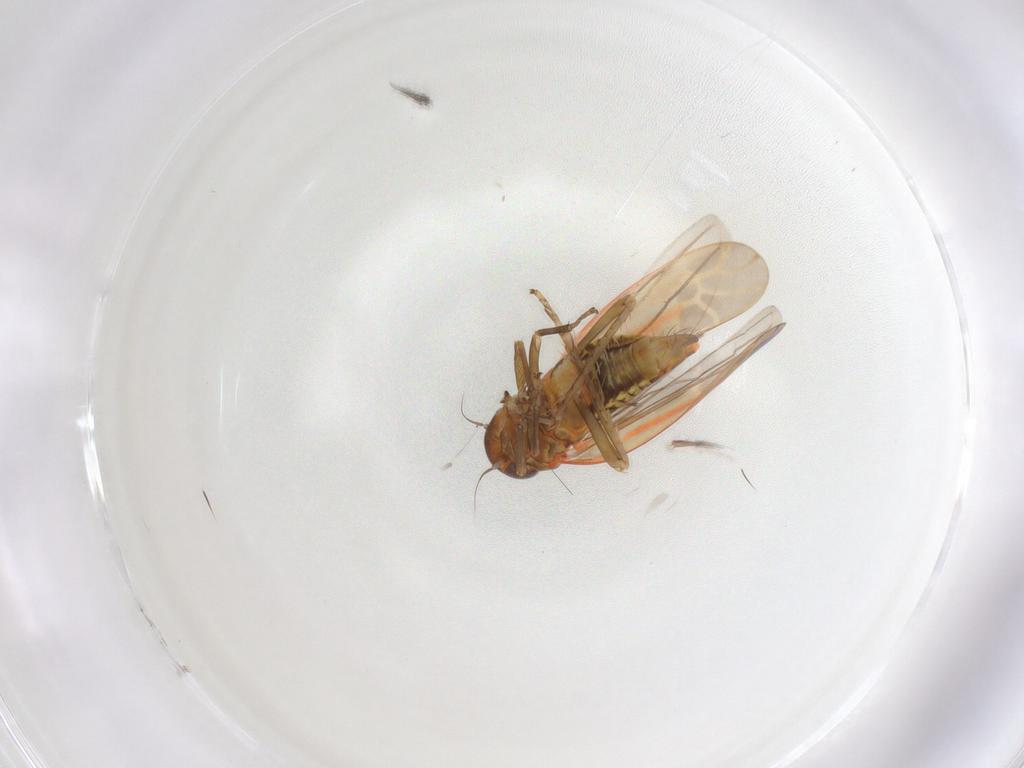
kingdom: Animalia
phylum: Arthropoda
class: Insecta
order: Hemiptera
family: Cicadellidae
